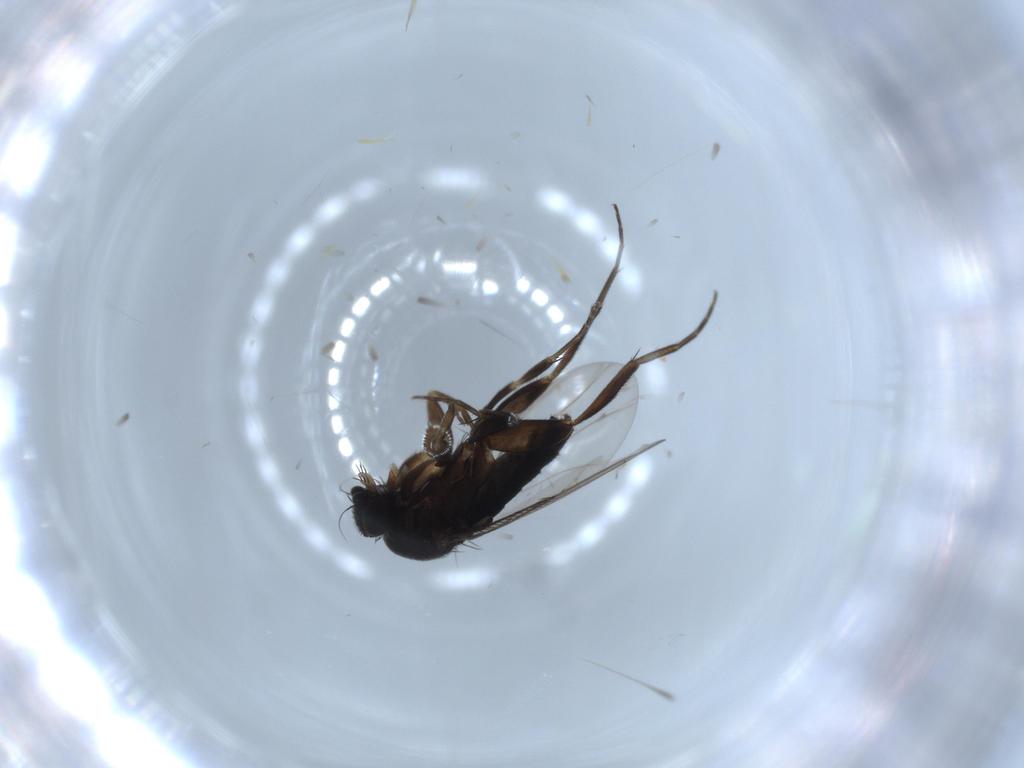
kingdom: Animalia
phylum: Arthropoda
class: Insecta
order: Diptera
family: Phoridae
